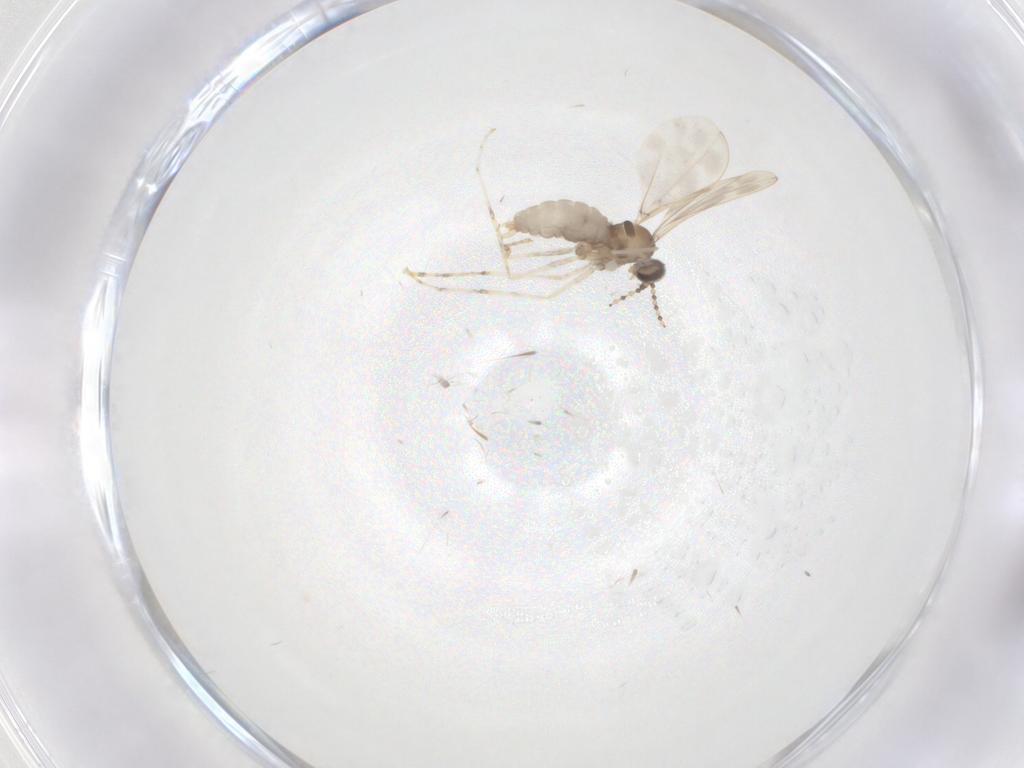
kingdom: Animalia
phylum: Arthropoda
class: Insecta
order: Diptera
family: Cecidomyiidae
